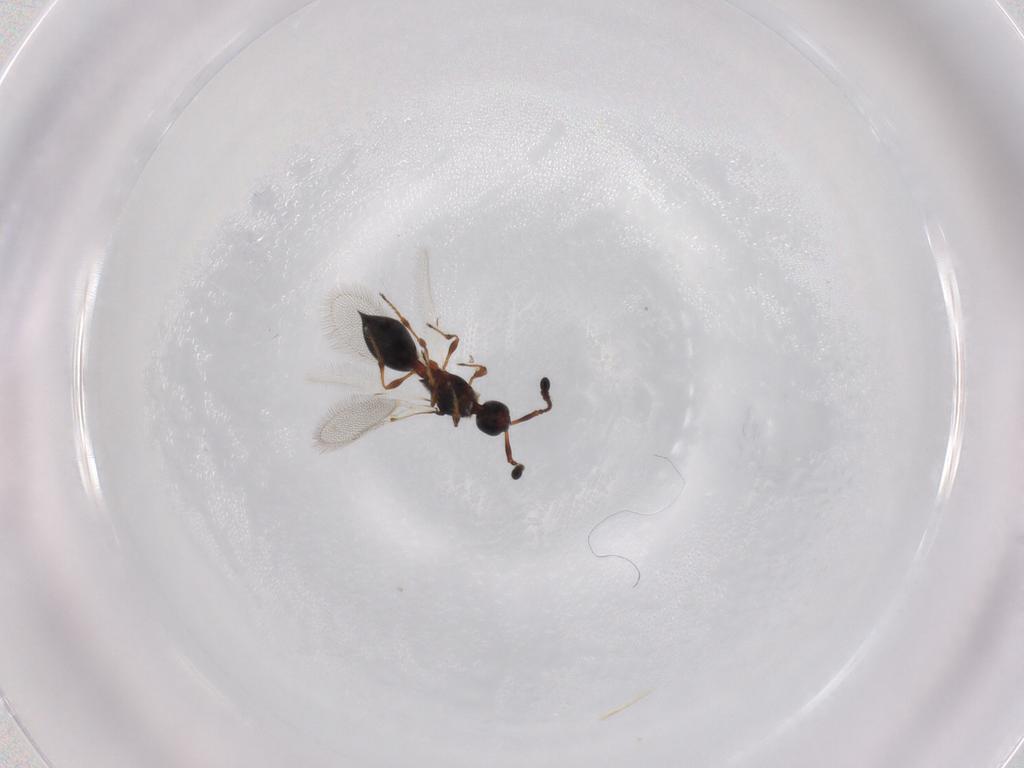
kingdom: Animalia
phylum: Arthropoda
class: Insecta
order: Hymenoptera
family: Diapriidae
